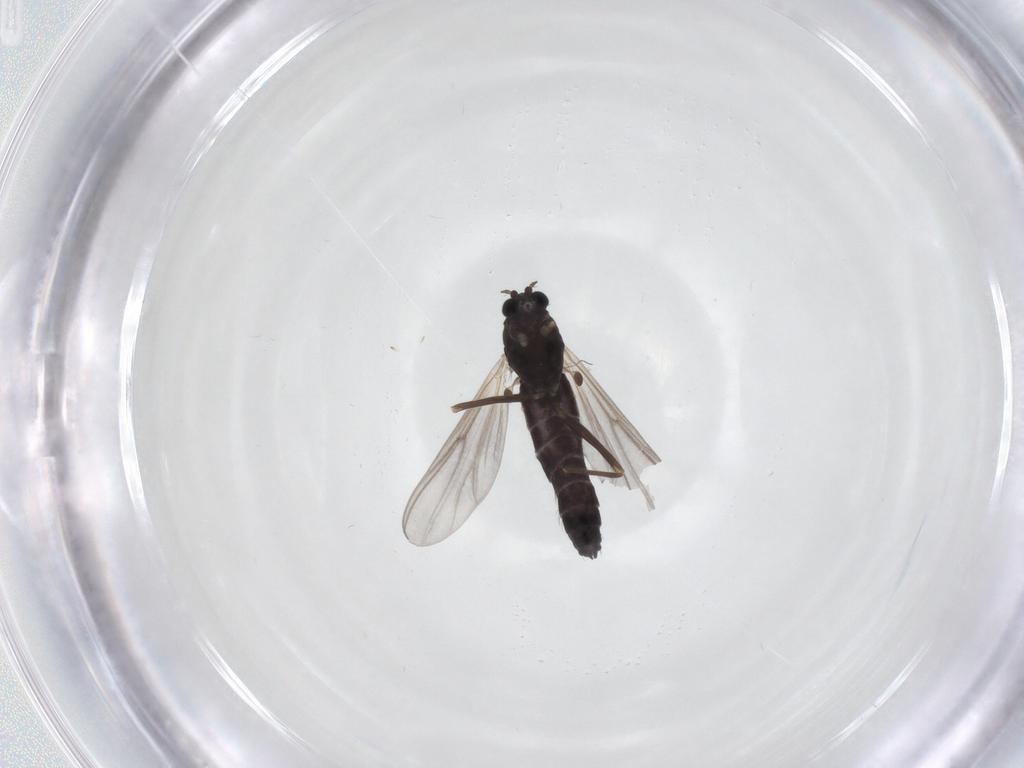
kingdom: Animalia
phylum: Arthropoda
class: Insecta
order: Diptera
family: Chironomidae
